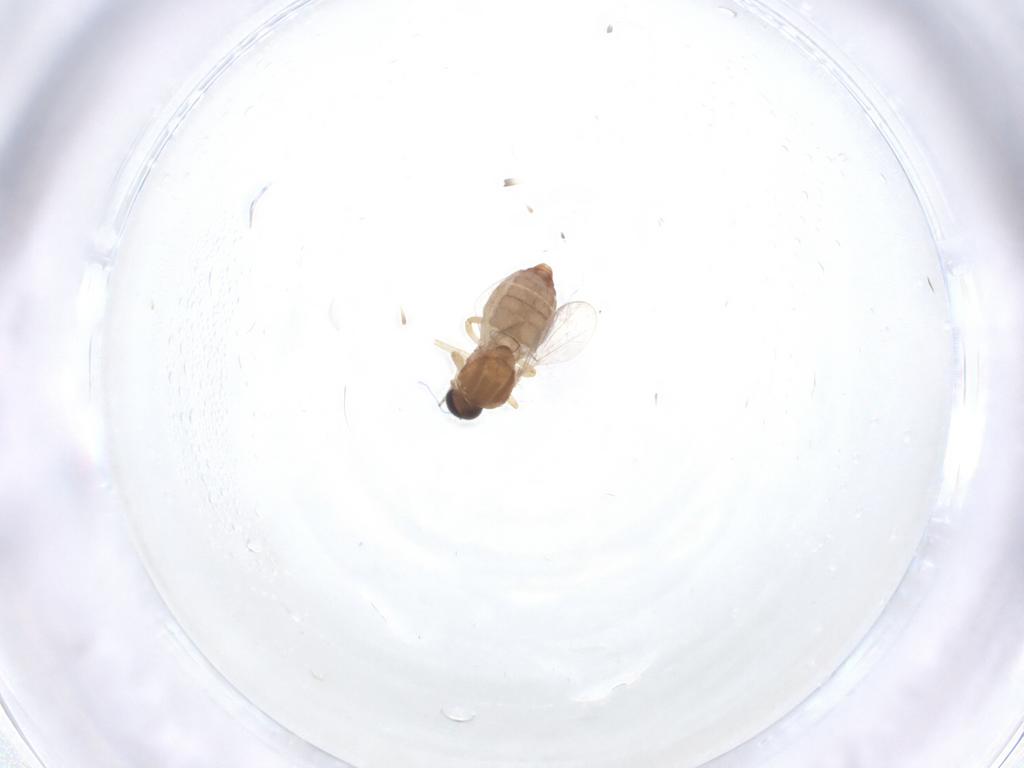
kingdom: Animalia
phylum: Arthropoda
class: Insecta
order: Diptera
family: Ceratopogonidae
